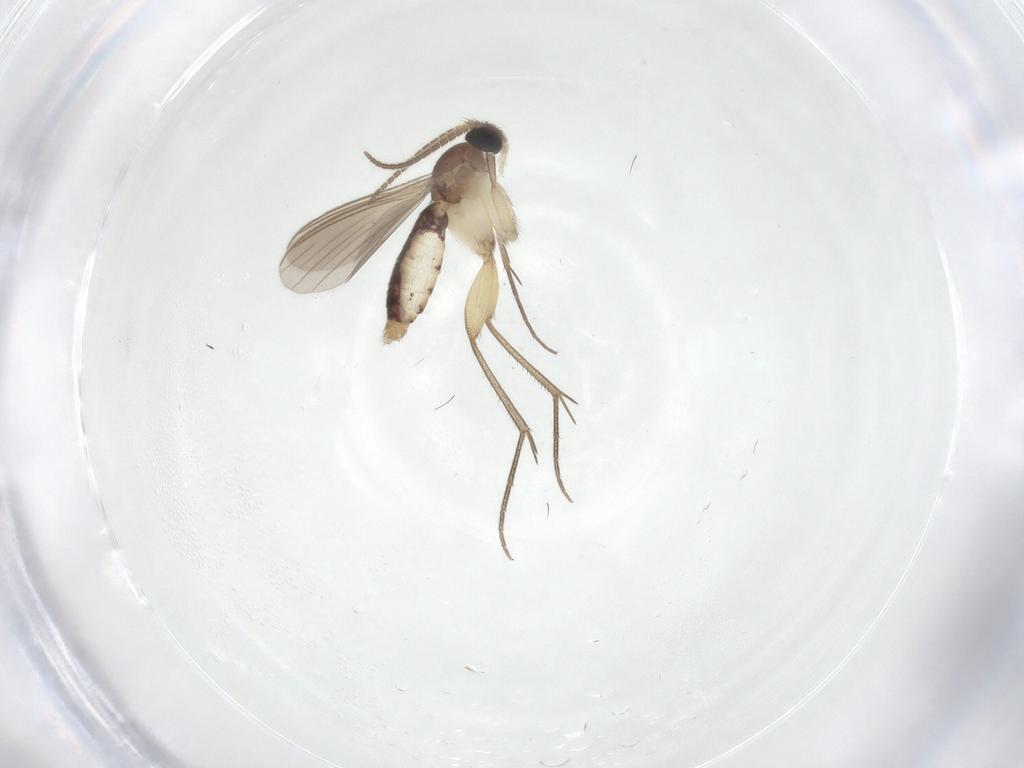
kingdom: Animalia
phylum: Arthropoda
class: Insecta
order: Diptera
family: Mycetophilidae
